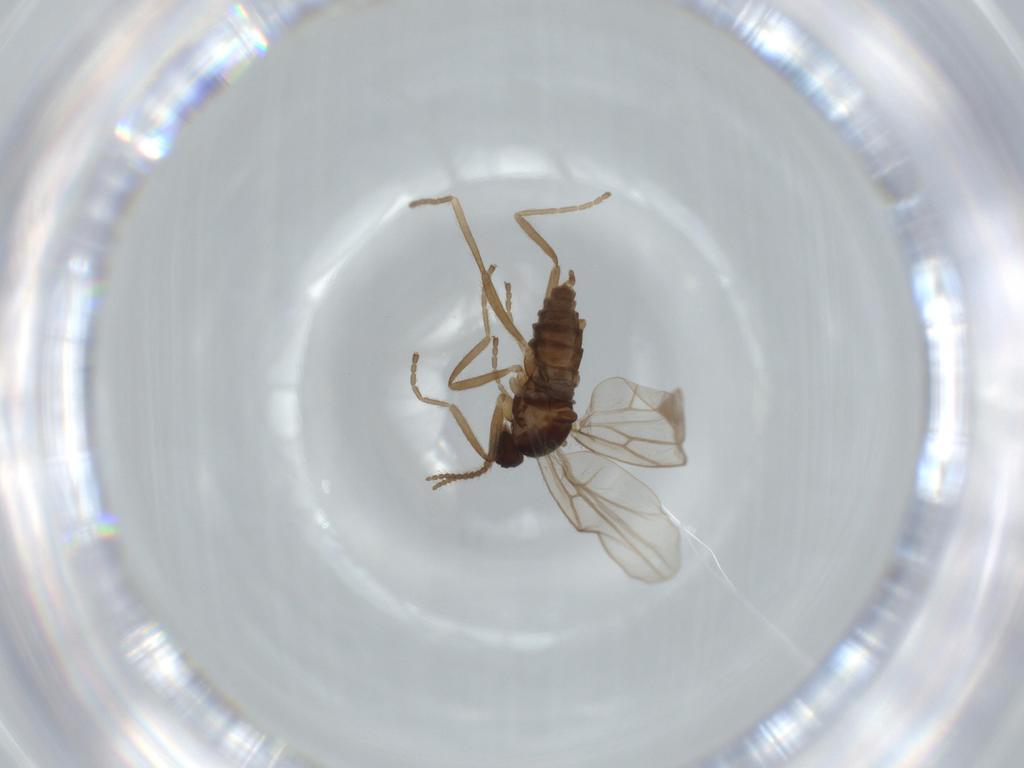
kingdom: Animalia
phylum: Arthropoda
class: Insecta
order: Diptera
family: Cecidomyiidae
